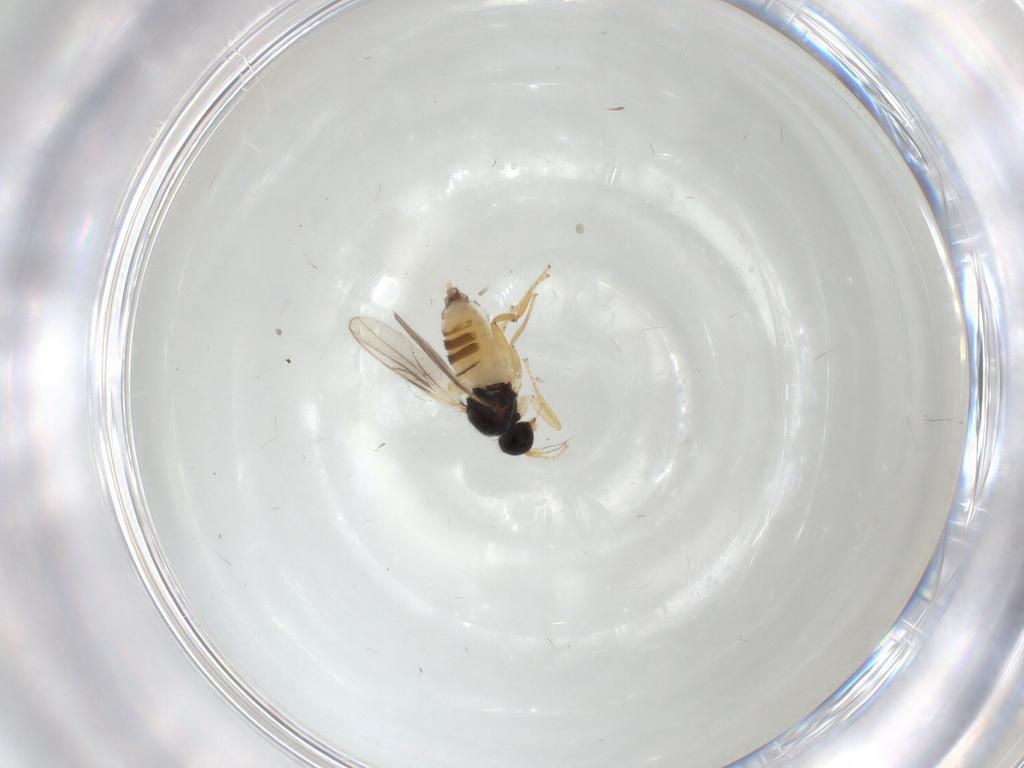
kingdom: Animalia
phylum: Arthropoda
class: Insecta
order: Diptera
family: Hybotidae
